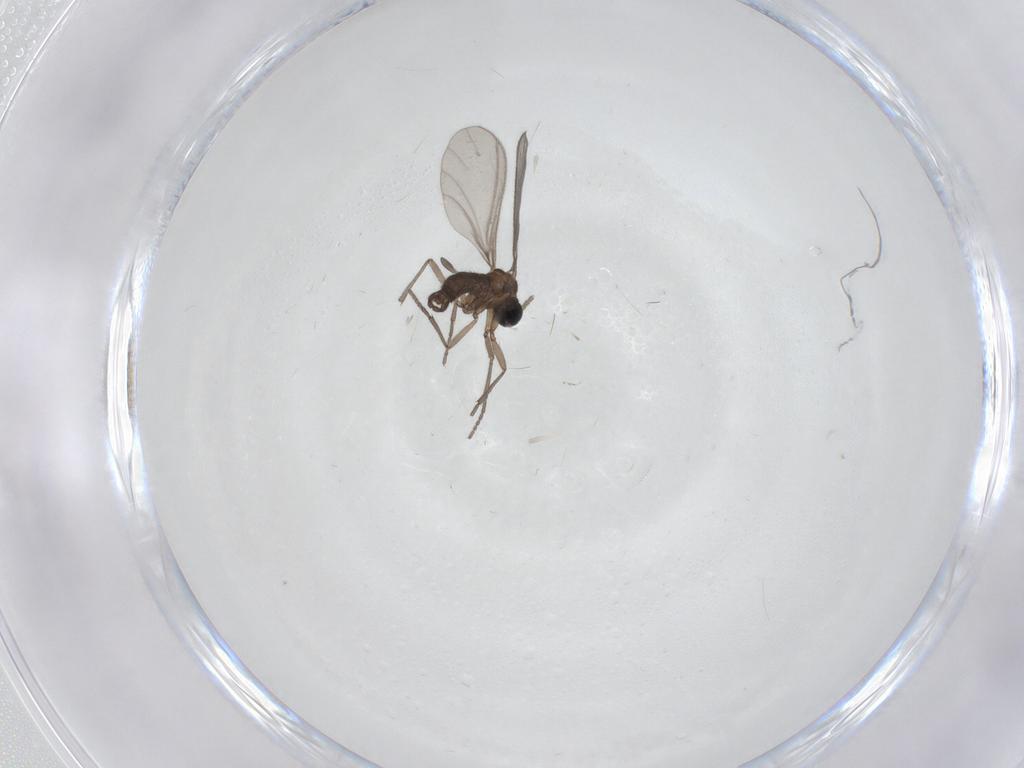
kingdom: Animalia
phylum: Arthropoda
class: Insecta
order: Diptera
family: Sciaridae
